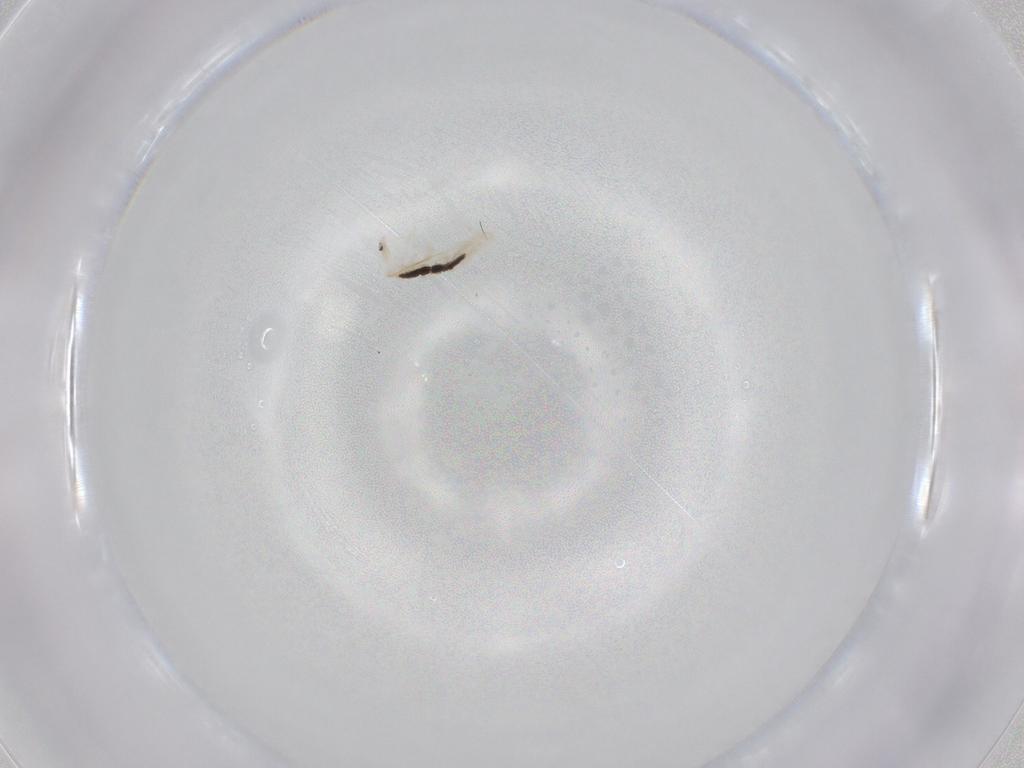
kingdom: Animalia
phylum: Arthropoda
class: Collembola
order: Entomobryomorpha
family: Entomobryidae
